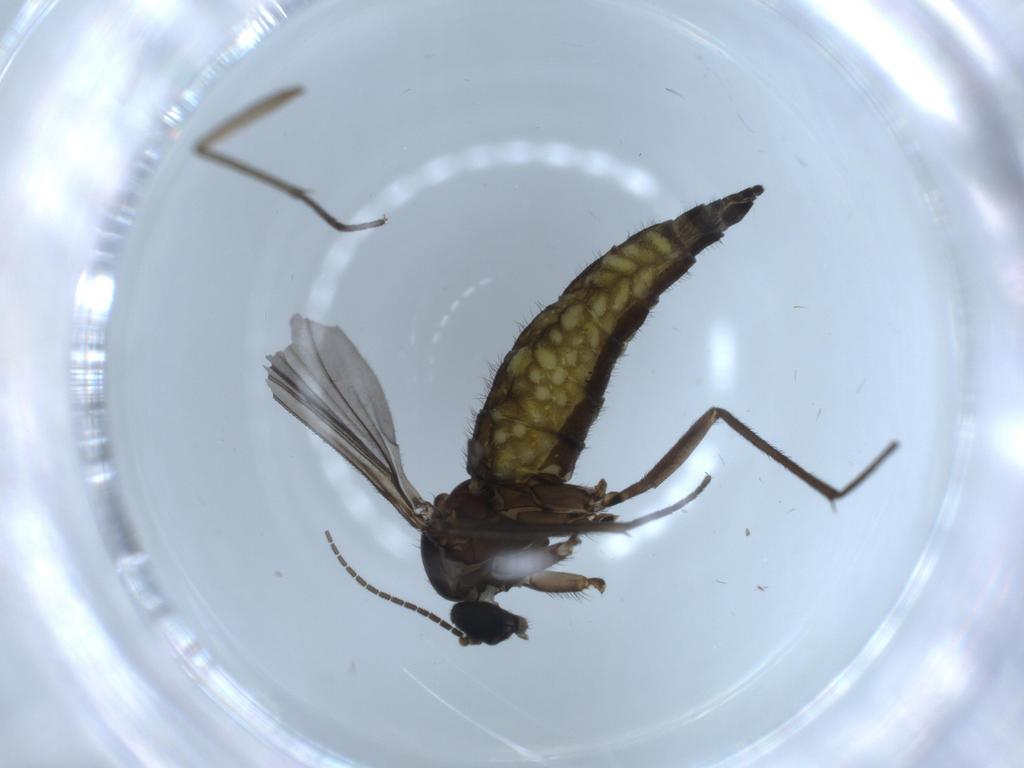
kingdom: Animalia
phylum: Arthropoda
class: Insecta
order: Diptera
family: Sciaridae
